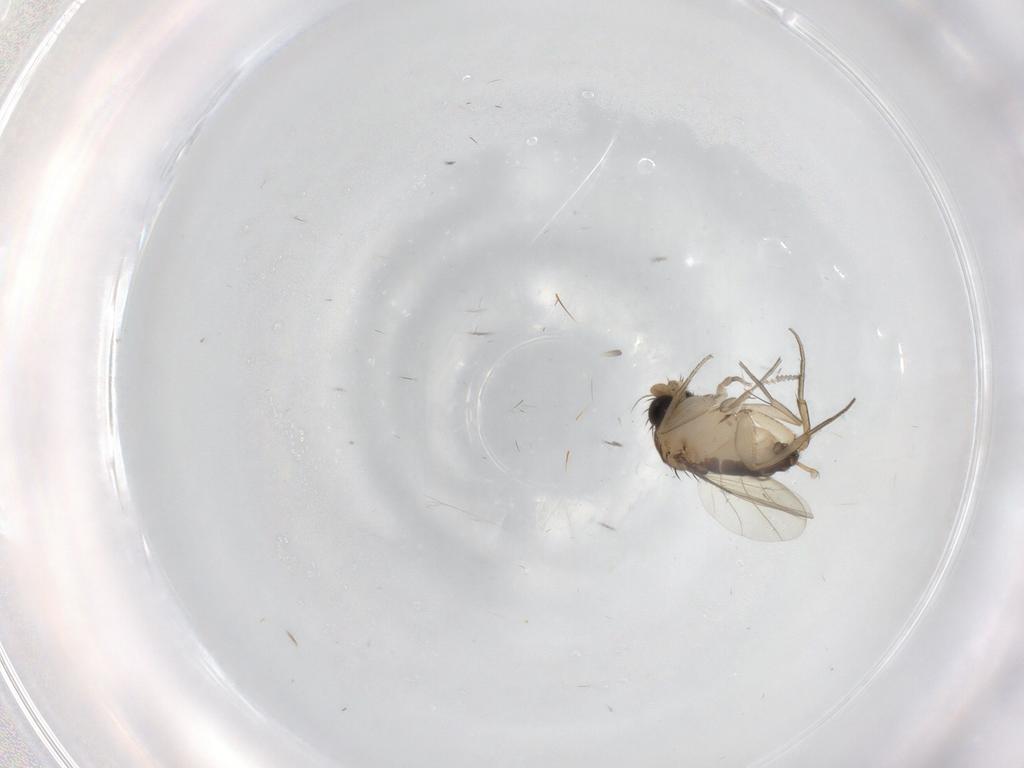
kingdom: Animalia
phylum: Arthropoda
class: Insecta
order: Diptera
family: Phoridae
